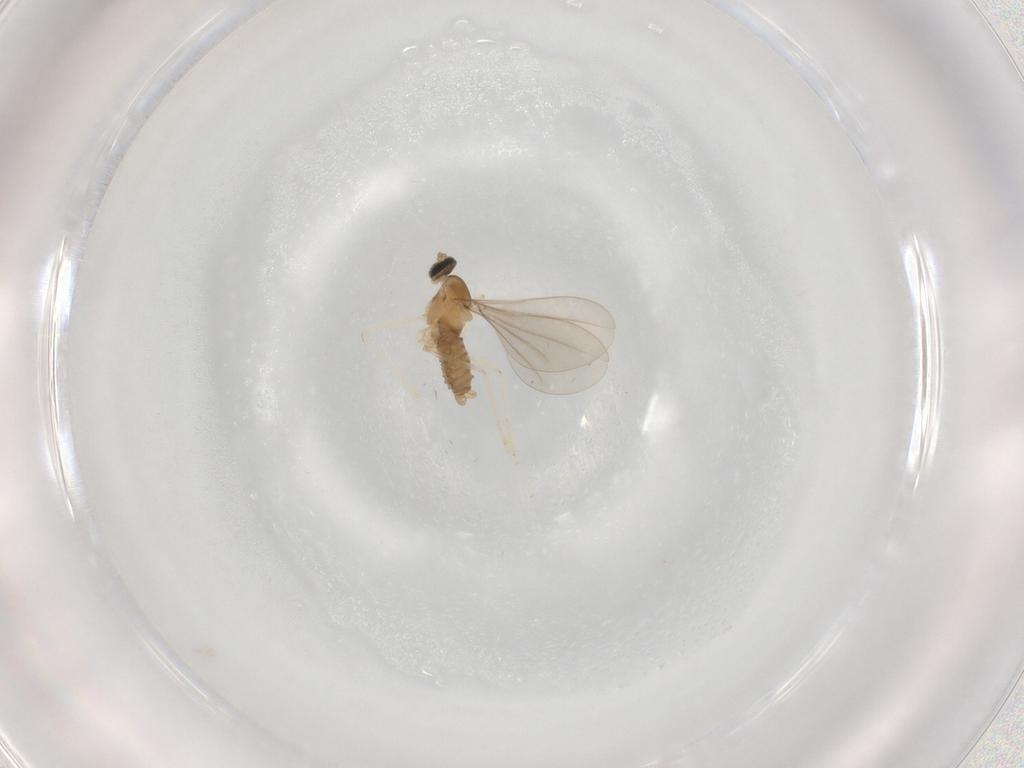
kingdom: Animalia
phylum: Arthropoda
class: Insecta
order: Diptera
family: Cecidomyiidae
